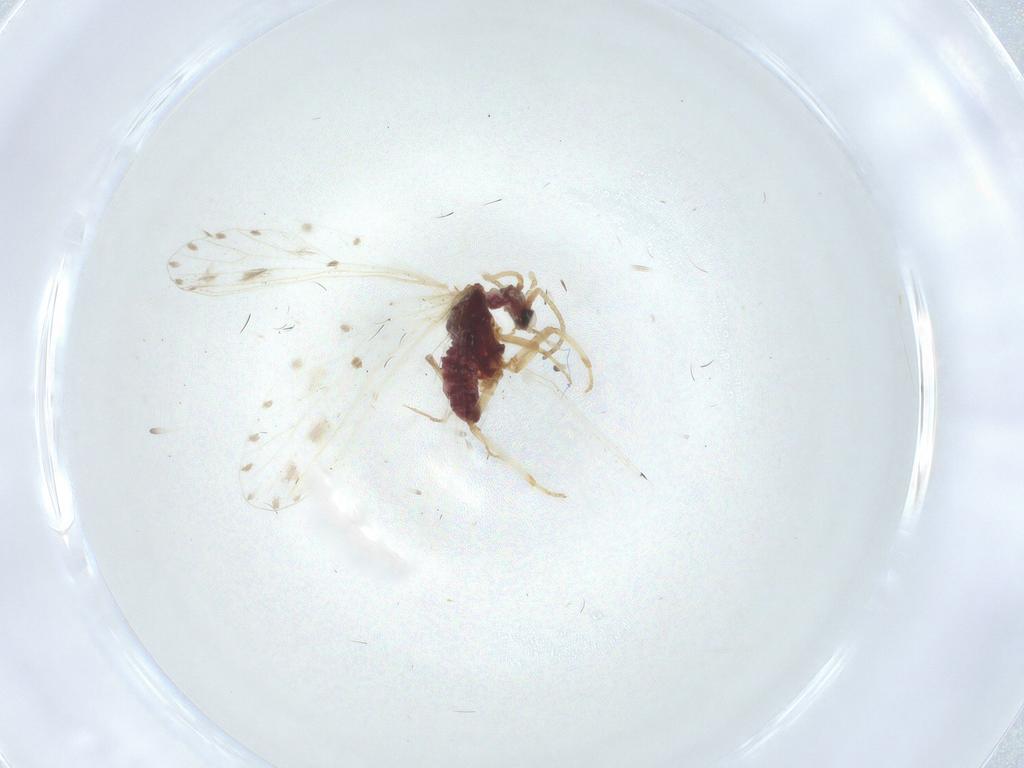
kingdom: Animalia
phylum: Arthropoda
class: Insecta
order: Neuroptera
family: Coniopterygidae
